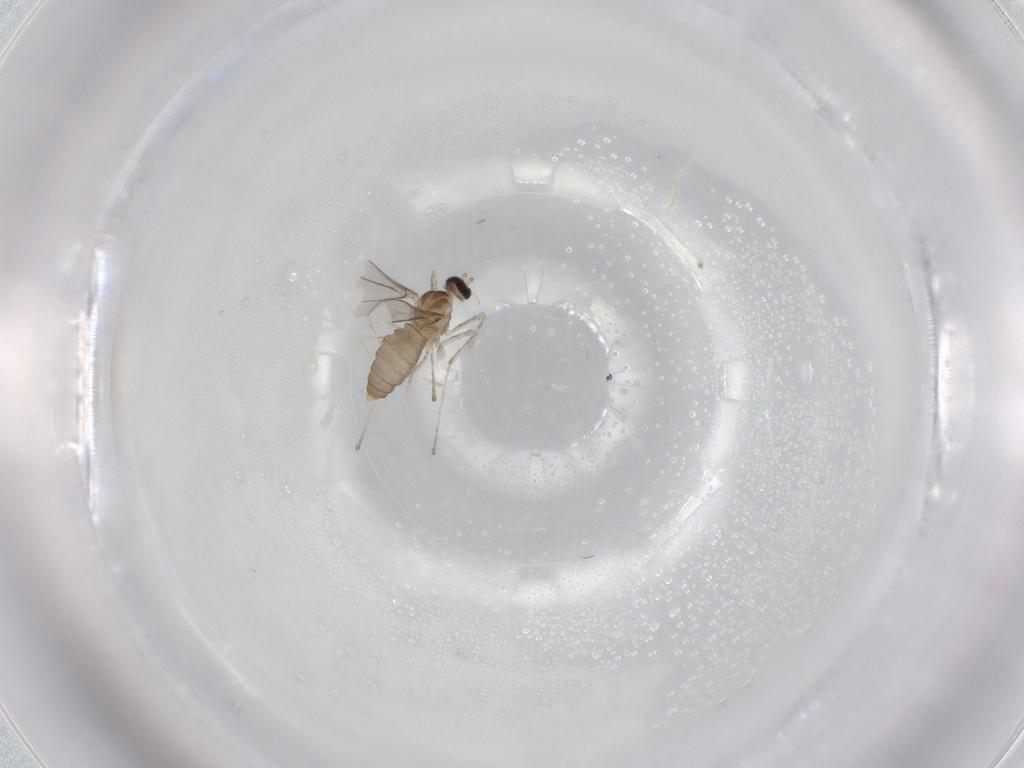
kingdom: Animalia
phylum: Arthropoda
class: Insecta
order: Diptera
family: Cecidomyiidae
